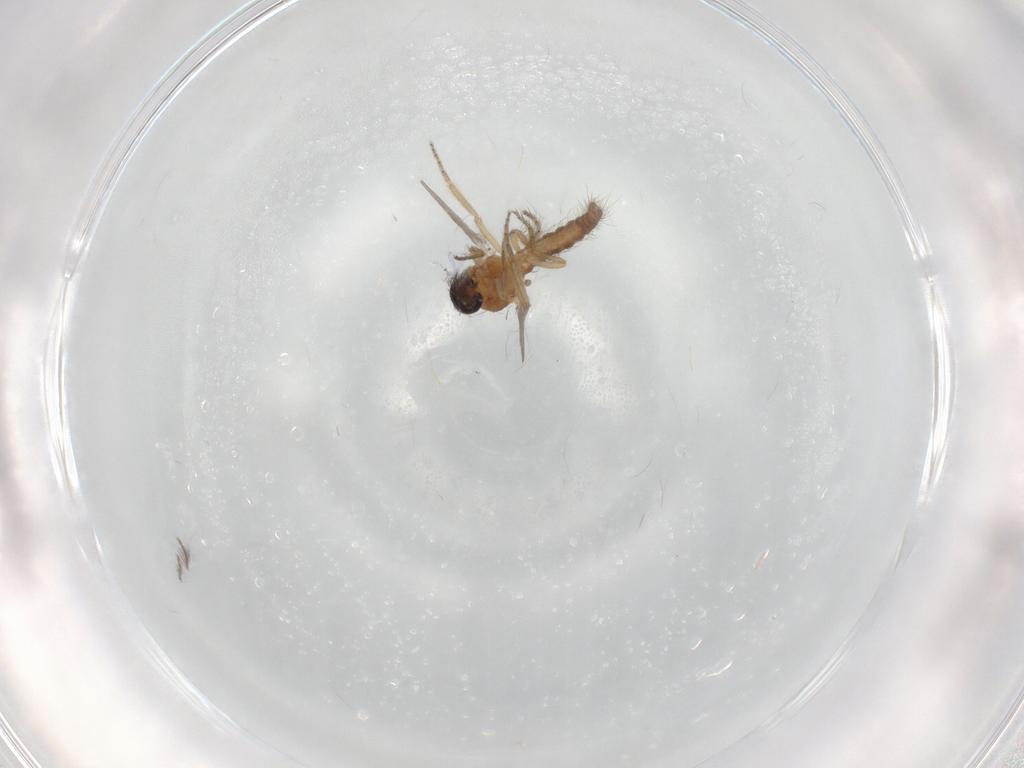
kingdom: Animalia
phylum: Arthropoda
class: Insecta
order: Diptera
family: Ceratopogonidae
